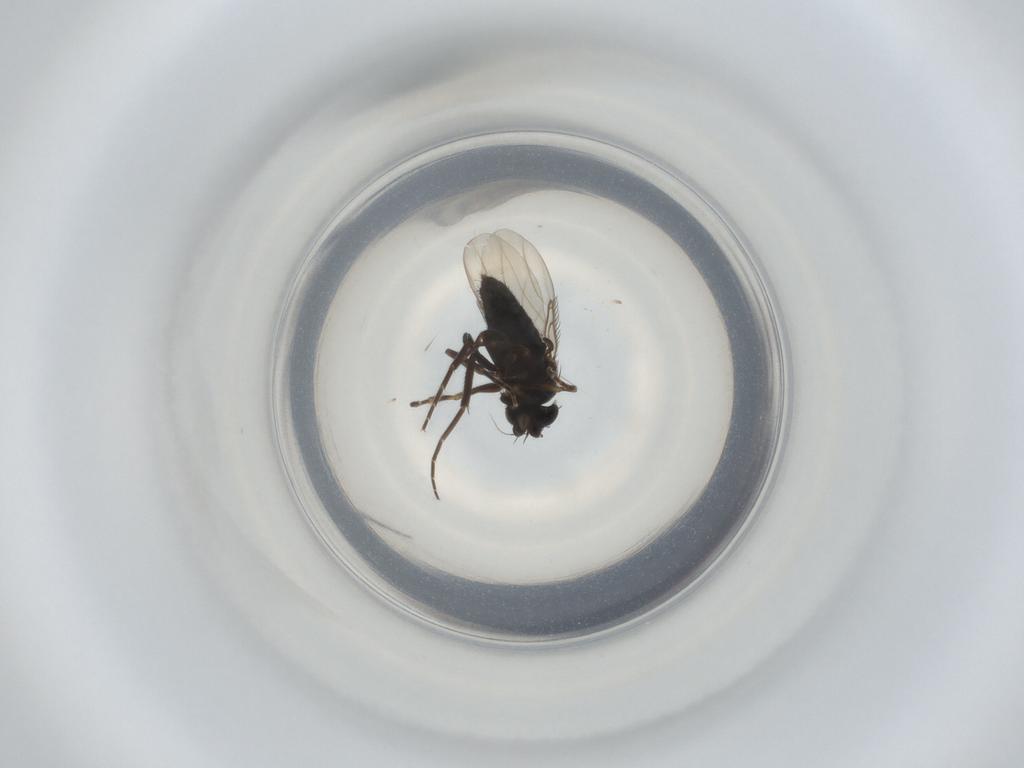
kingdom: Animalia
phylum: Arthropoda
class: Insecta
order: Diptera
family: Phoridae
